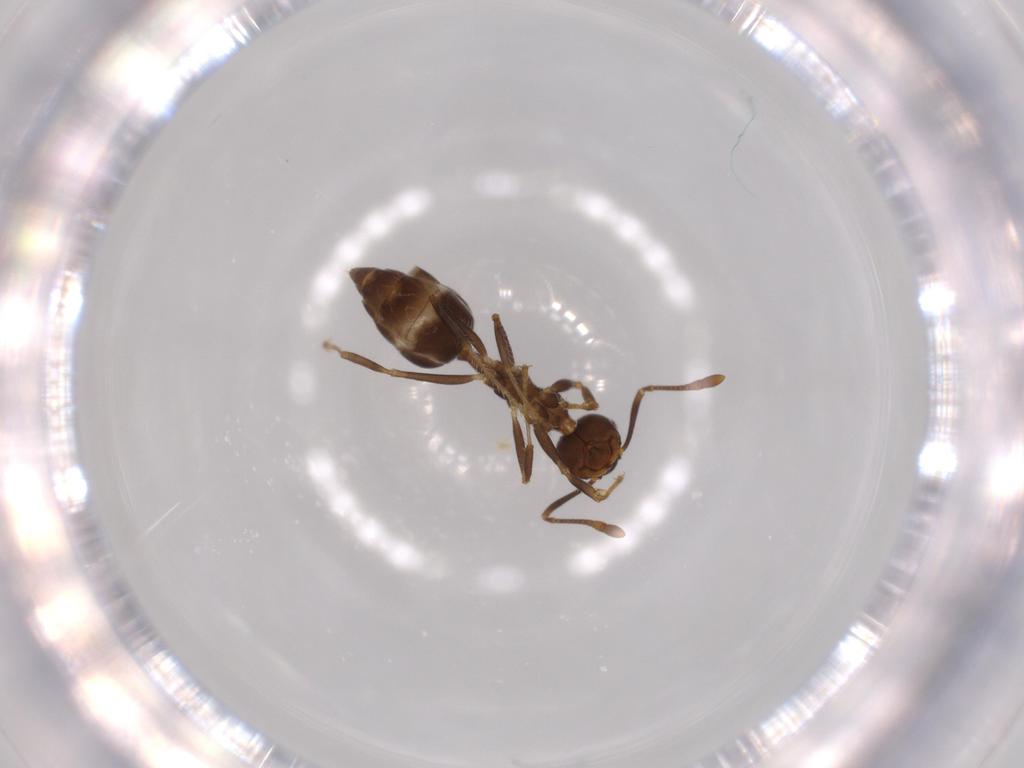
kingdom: Animalia
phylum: Arthropoda
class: Insecta
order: Hymenoptera
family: Formicidae
